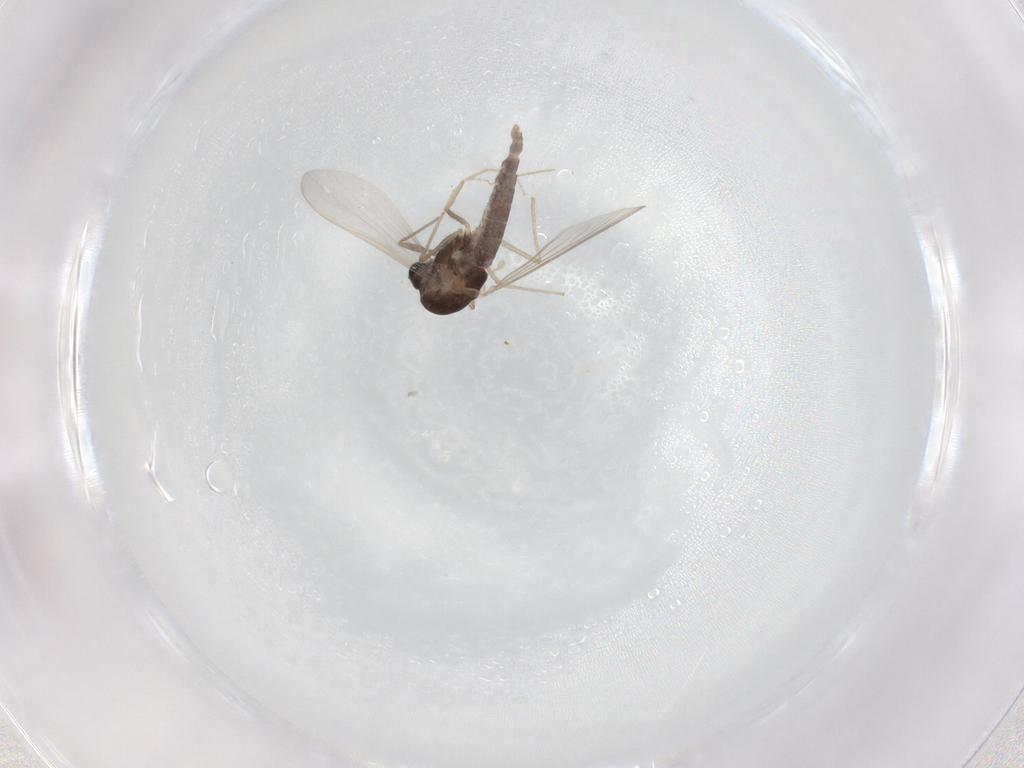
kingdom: Animalia
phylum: Arthropoda
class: Insecta
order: Diptera
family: Chironomidae
